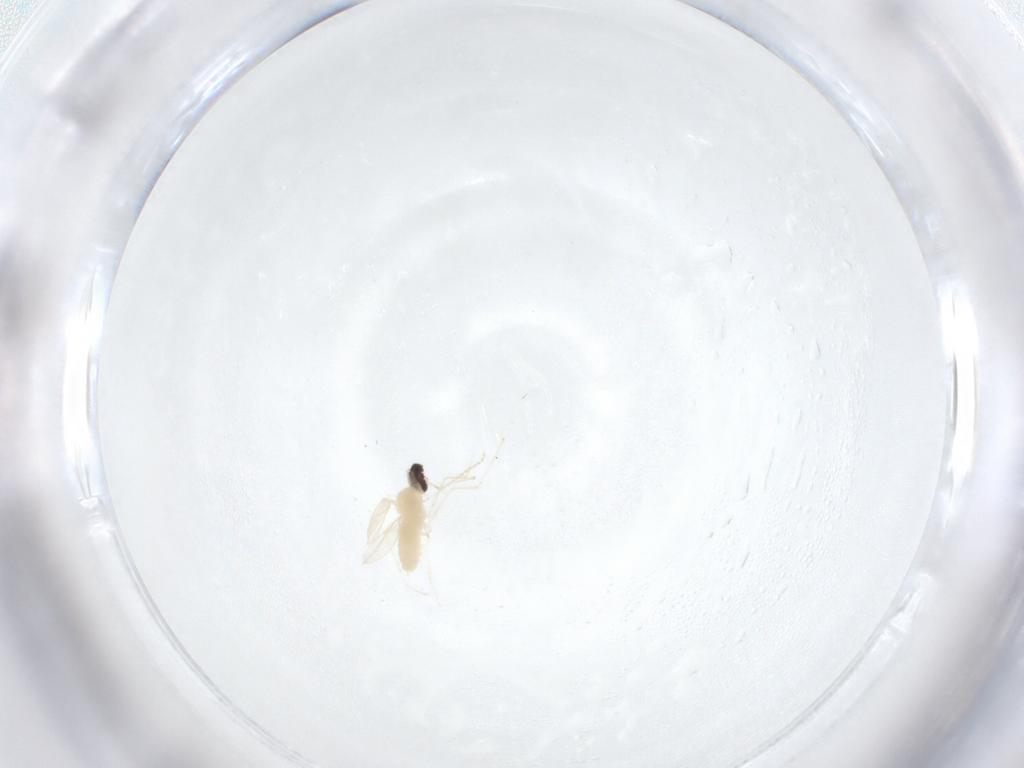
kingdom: Animalia
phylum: Arthropoda
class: Insecta
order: Diptera
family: Cecidomyiidae
